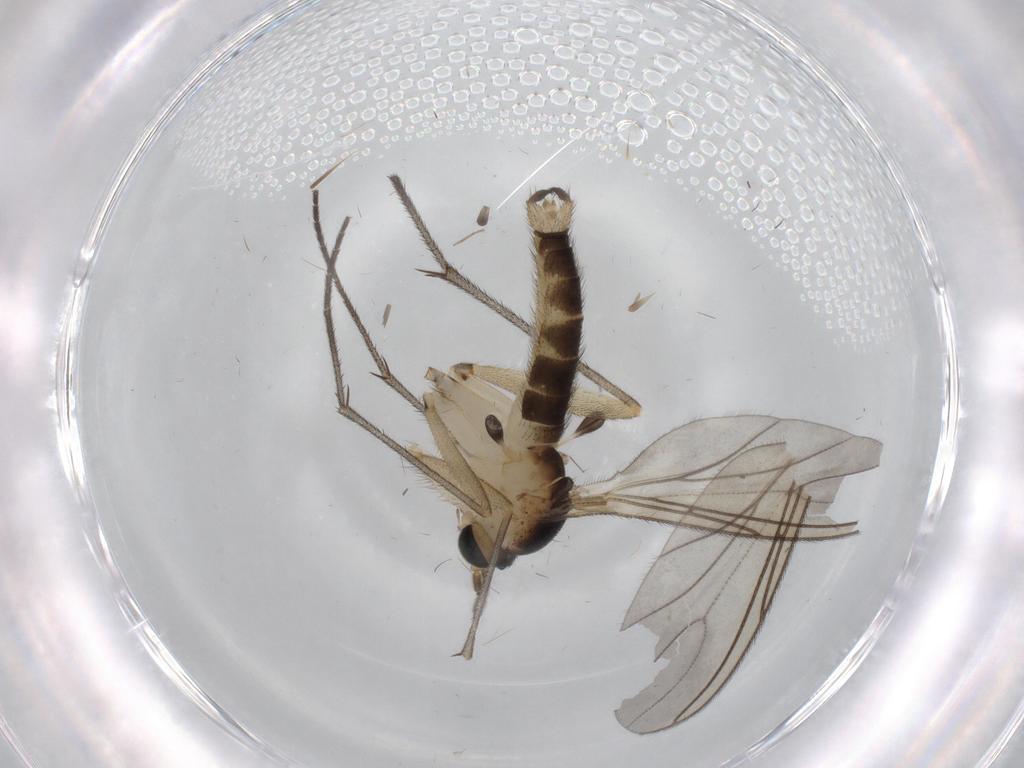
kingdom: Animalia
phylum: Arthropoda
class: Insecta
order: Diptera
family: Sciaridae
